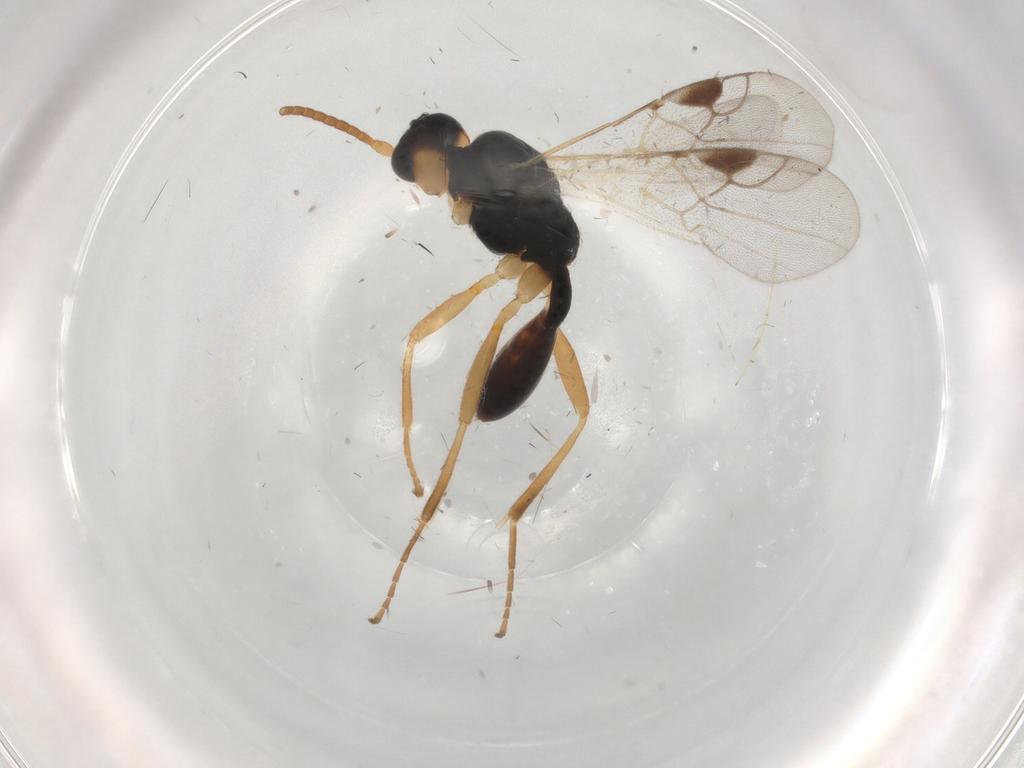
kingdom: Animalia
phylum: Arthropoda
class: Insecta
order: Hymenoptera
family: Braconidae
